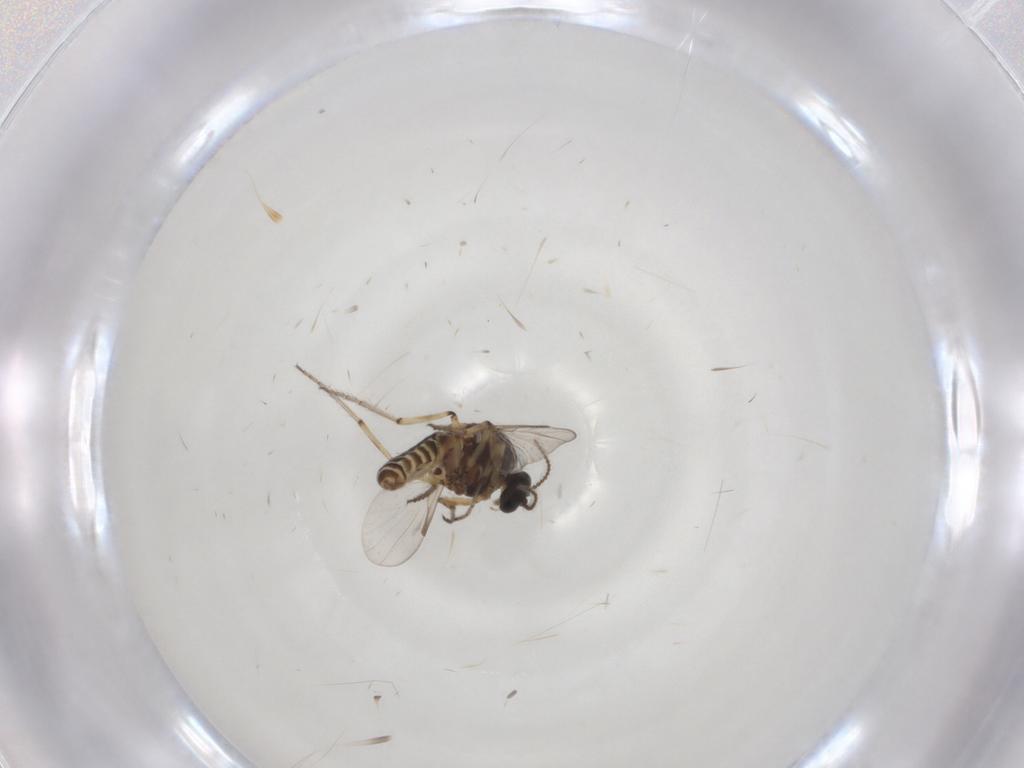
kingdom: Animalia
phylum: Arthropoda
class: Insecta
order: Diptera
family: Ceratopogonidae
